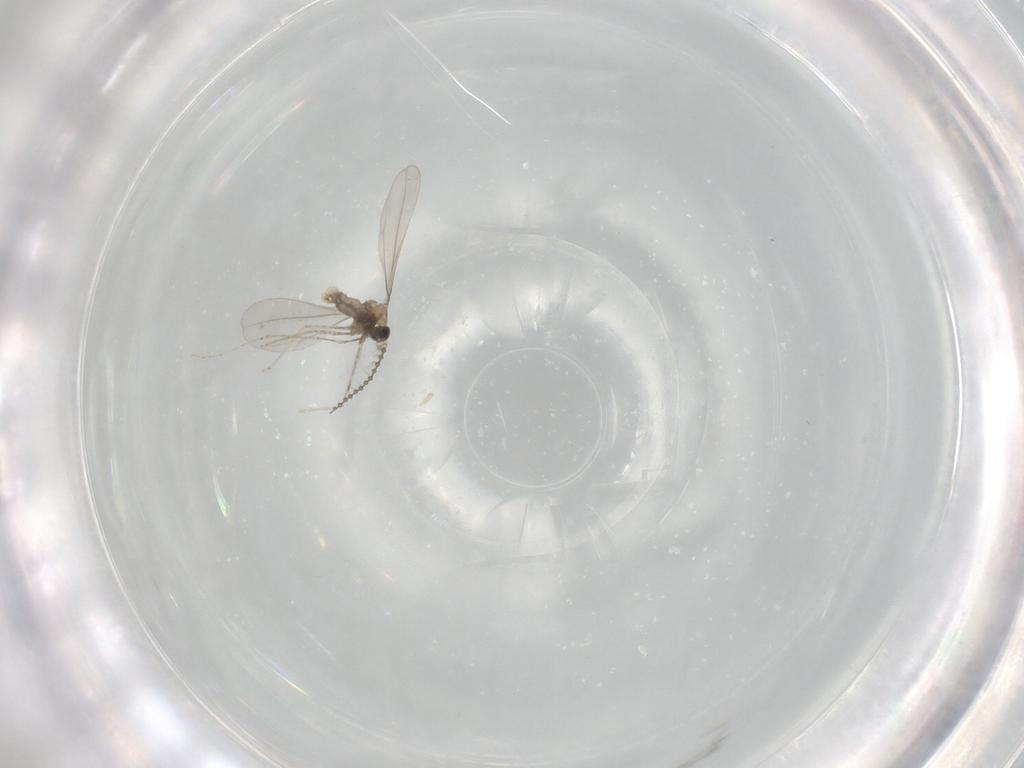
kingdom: Animalia
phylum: Arthropoda
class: Insecta
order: Diptera
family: Cecidomyiidae
